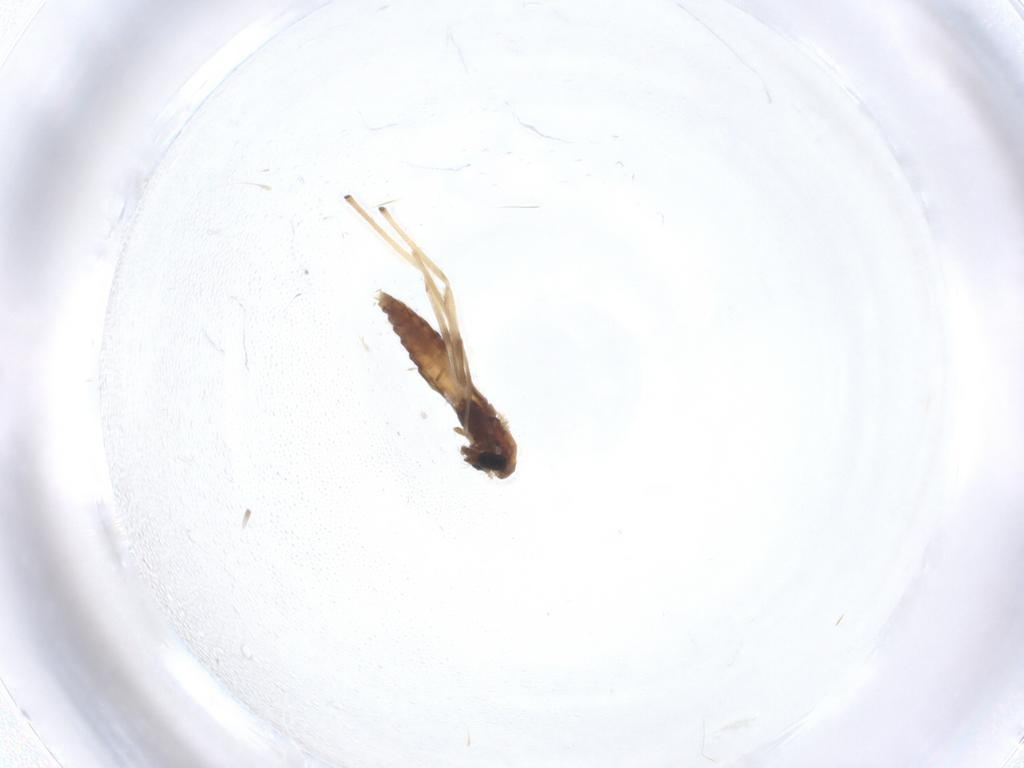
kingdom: Animalia
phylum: Arthropoda
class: Insecta
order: Diptera
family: Chironomidae
